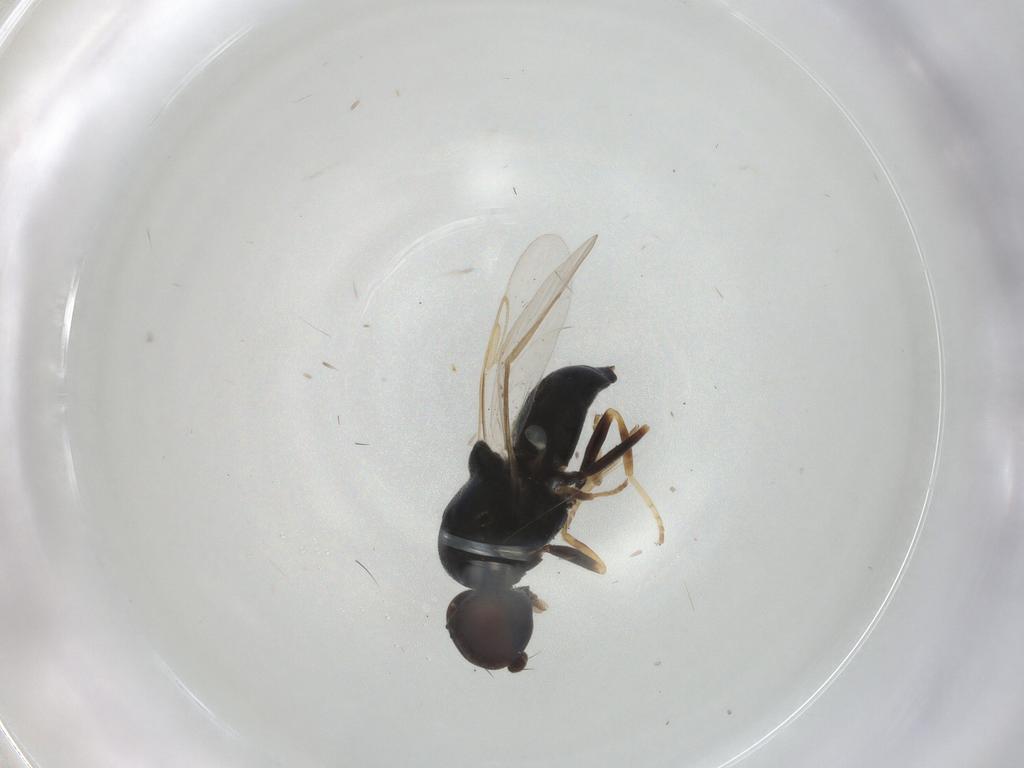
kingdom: Animalia
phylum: Arthropoda
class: Insecta
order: Diptera
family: Stratiomyidae
